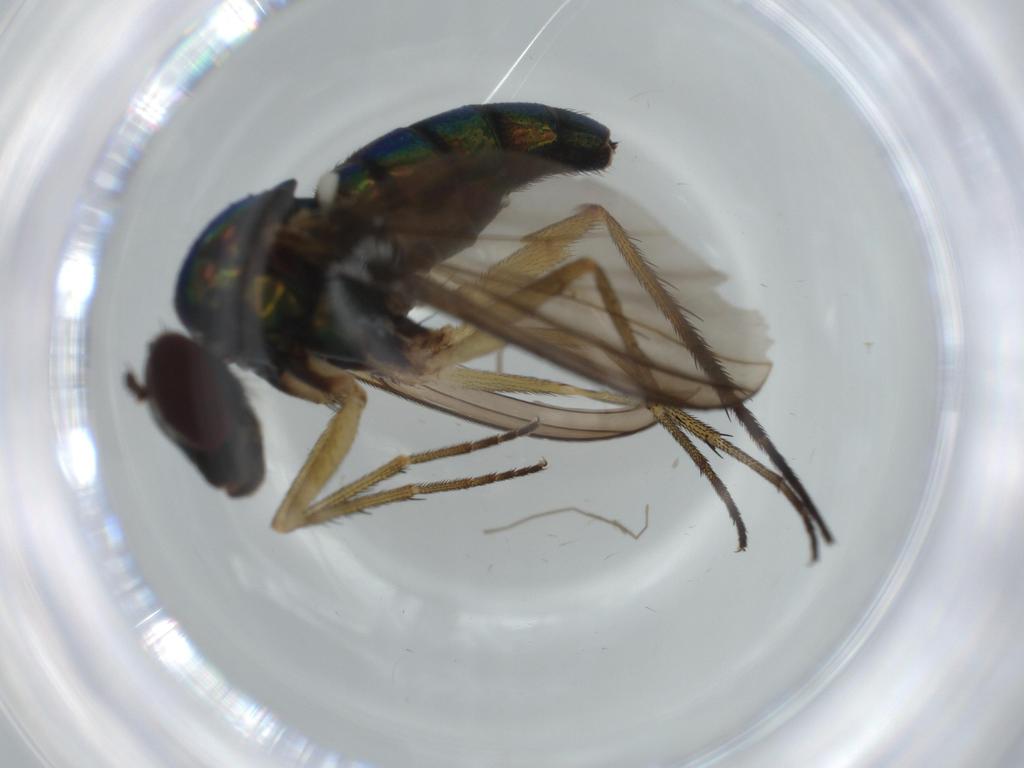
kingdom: Animalia
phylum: Arthropoda
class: Insecta
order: Diptera
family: Dolichopodidae
